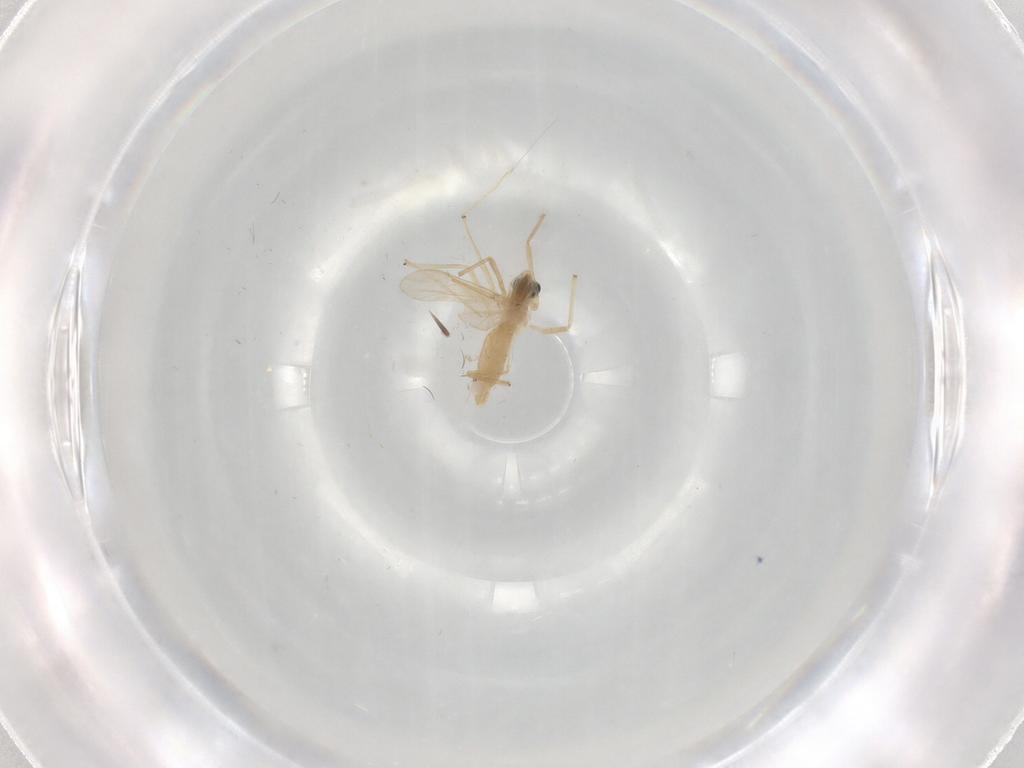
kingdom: Animalia
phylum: Arthropoda
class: Insecta
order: Diptera
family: Chironomidae
